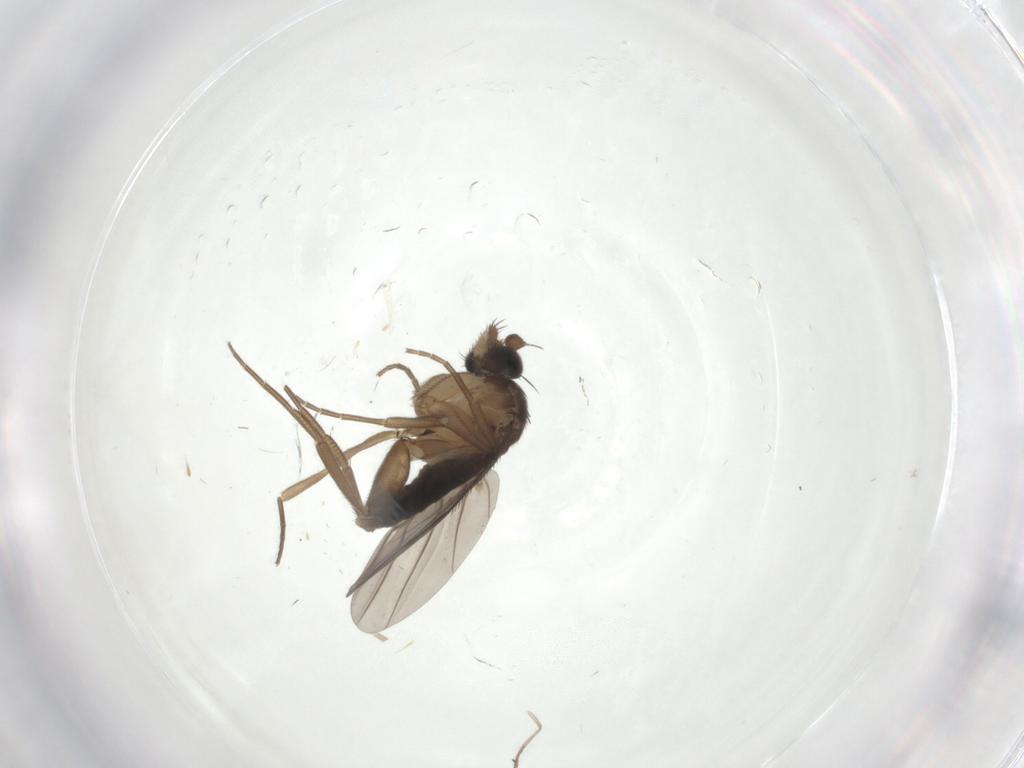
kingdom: Animalia
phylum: Arthropoda
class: Insecta
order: Diptera
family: Phoridae
